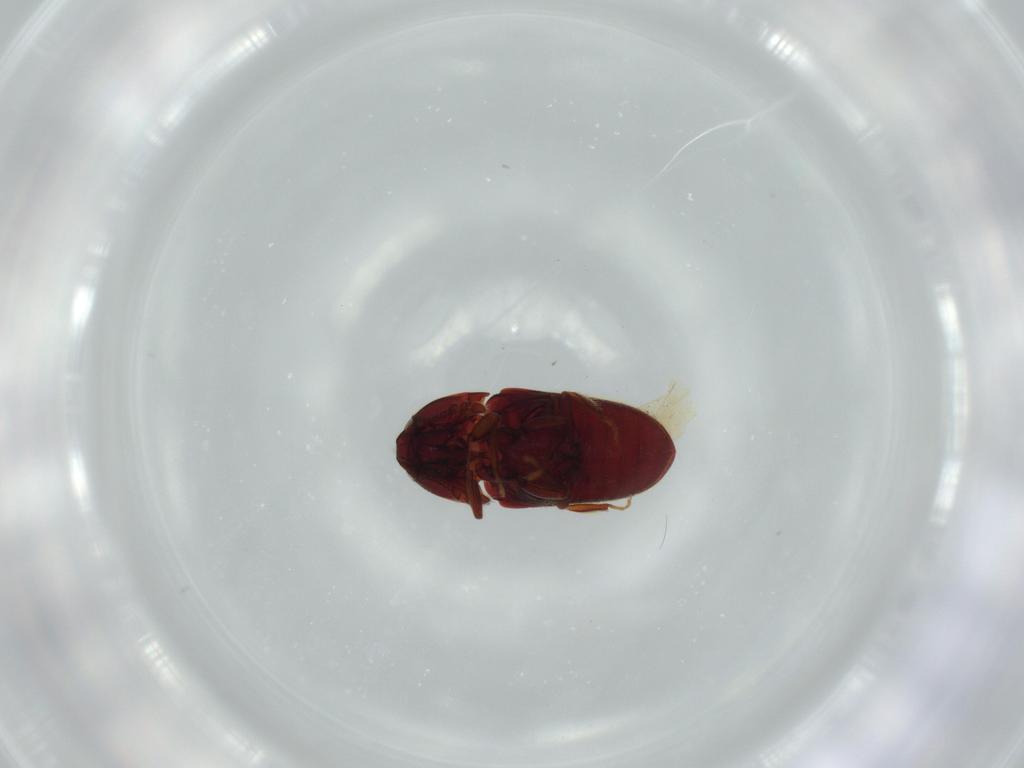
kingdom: Animalia
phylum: Arthropoda
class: Insecta
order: Coleoptera
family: Throscidae
